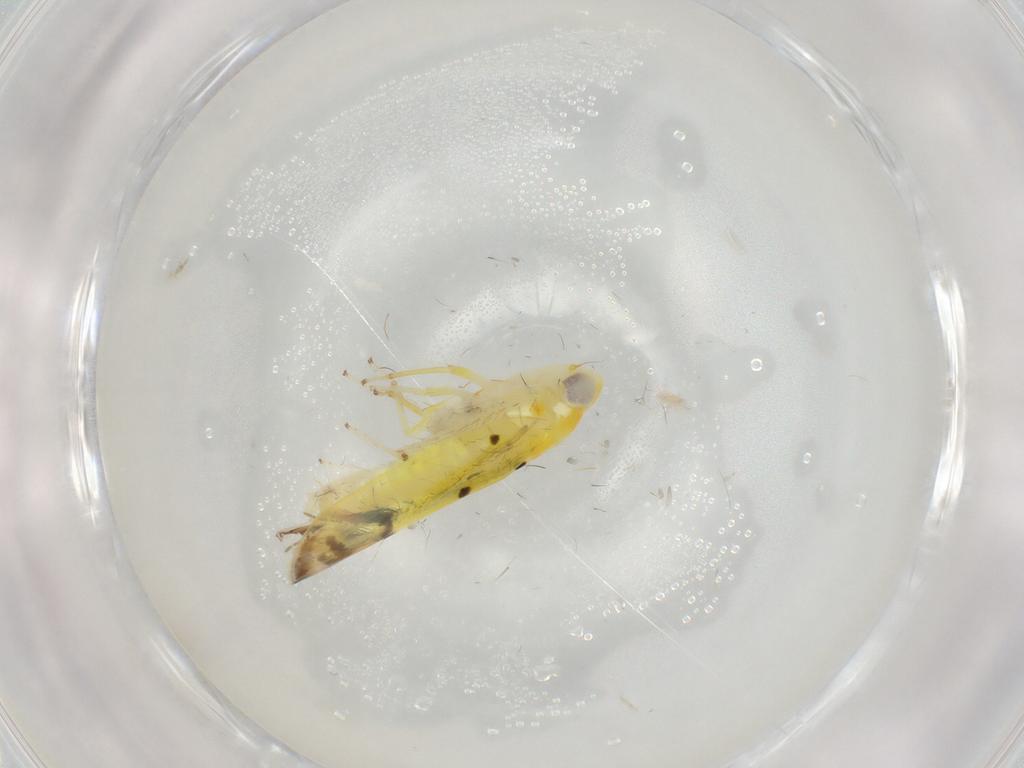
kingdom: Animalia
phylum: Arthropoda
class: Insecta
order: Hemiptera
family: Cicadellidae
